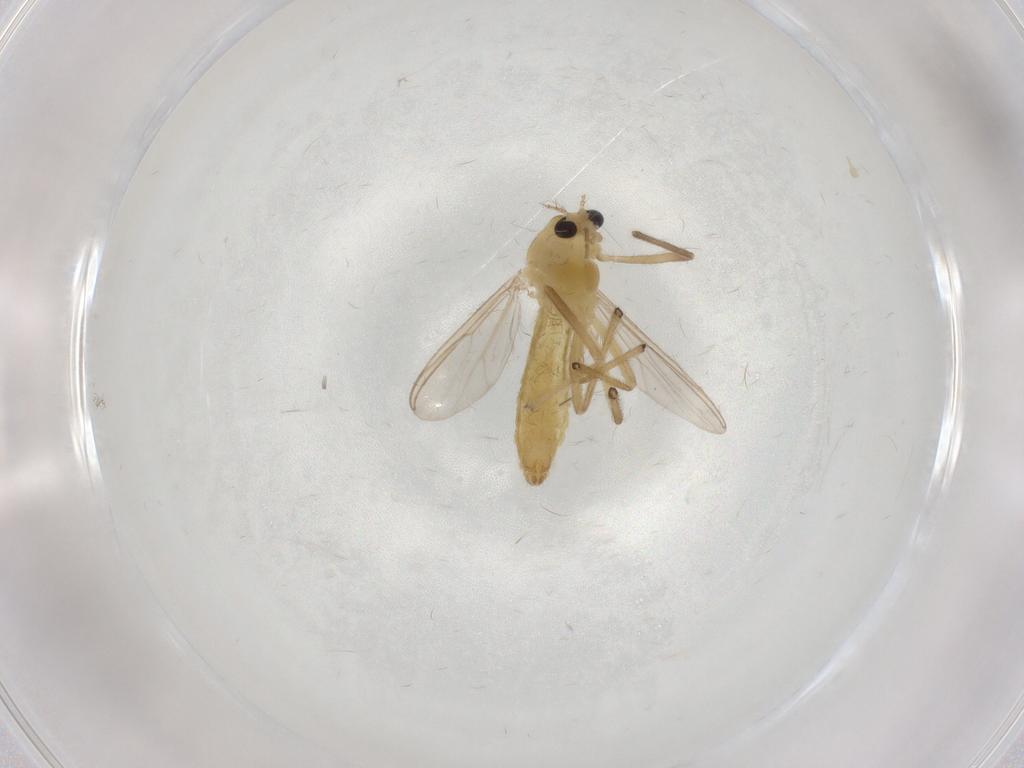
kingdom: Animalia
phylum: Arthropoda
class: Insecta
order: Diptera
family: Chironomidae
